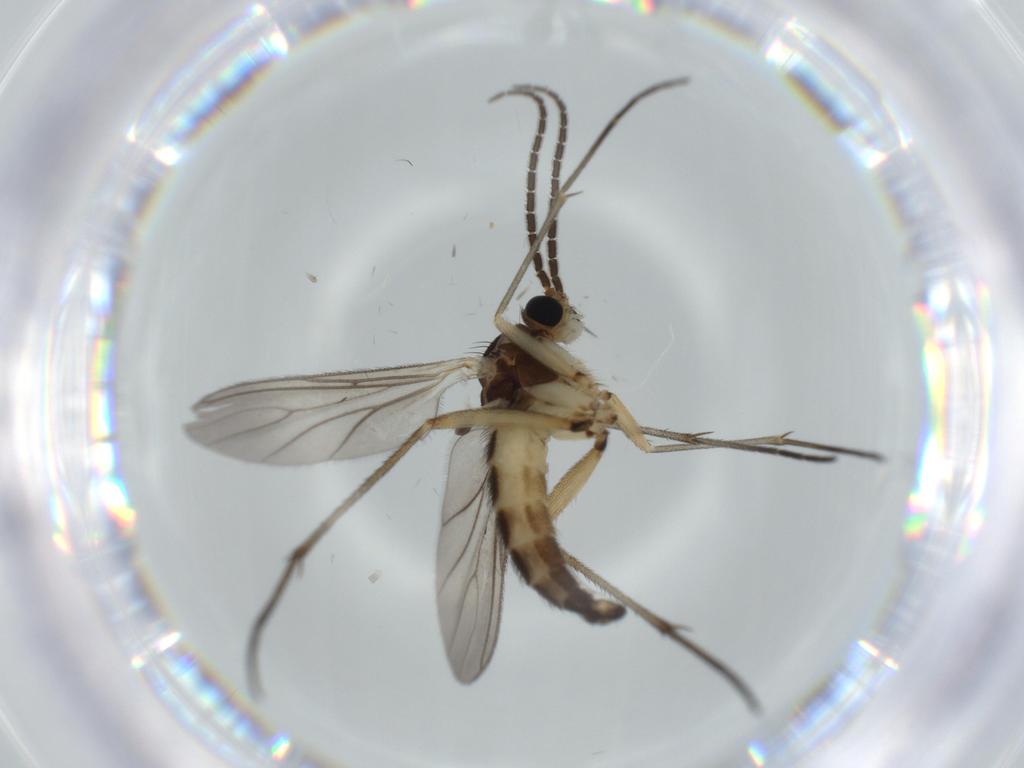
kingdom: Animalia
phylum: Arthropoda
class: Insecta
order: Diptera
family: Sciaridae
